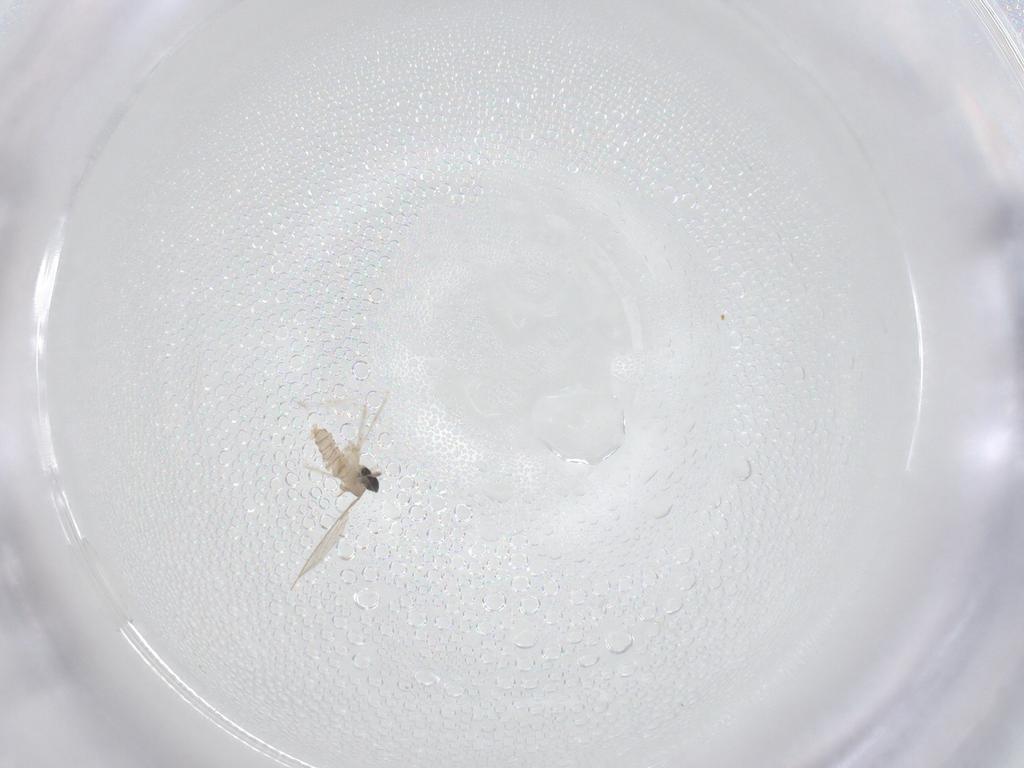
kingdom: Animalia
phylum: Arthropoda
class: Insecta
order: Diptera
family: Cecidomyiidae
